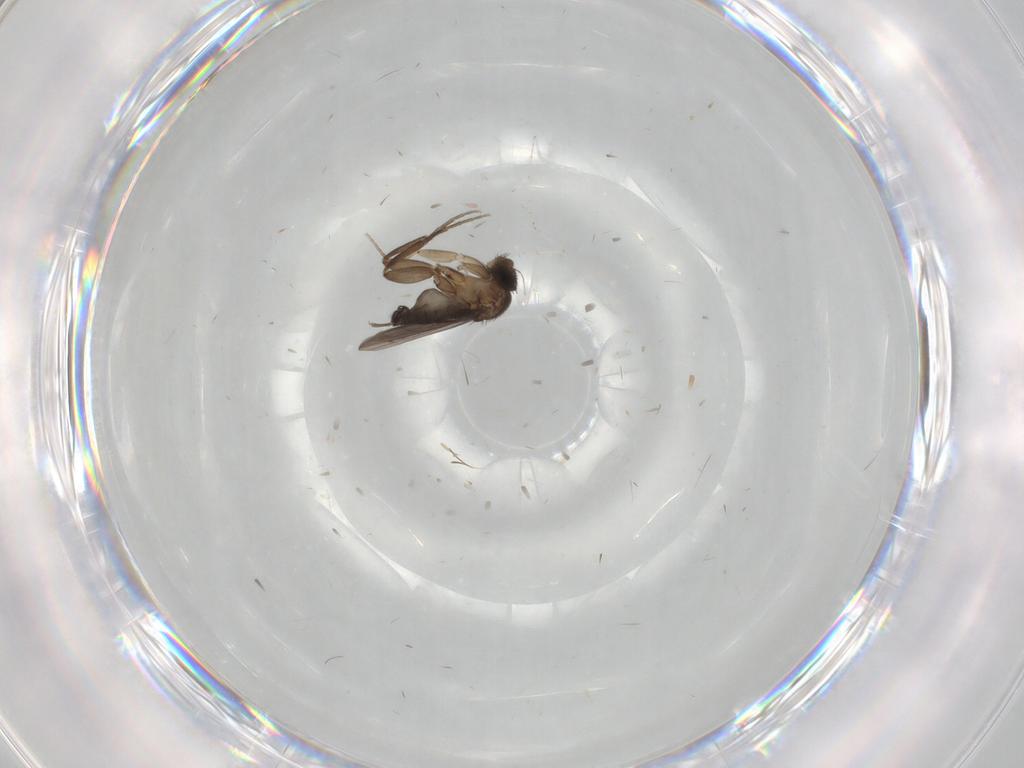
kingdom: Animalia
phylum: Arthropoda
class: Insecta
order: Diptera
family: Phoridae
